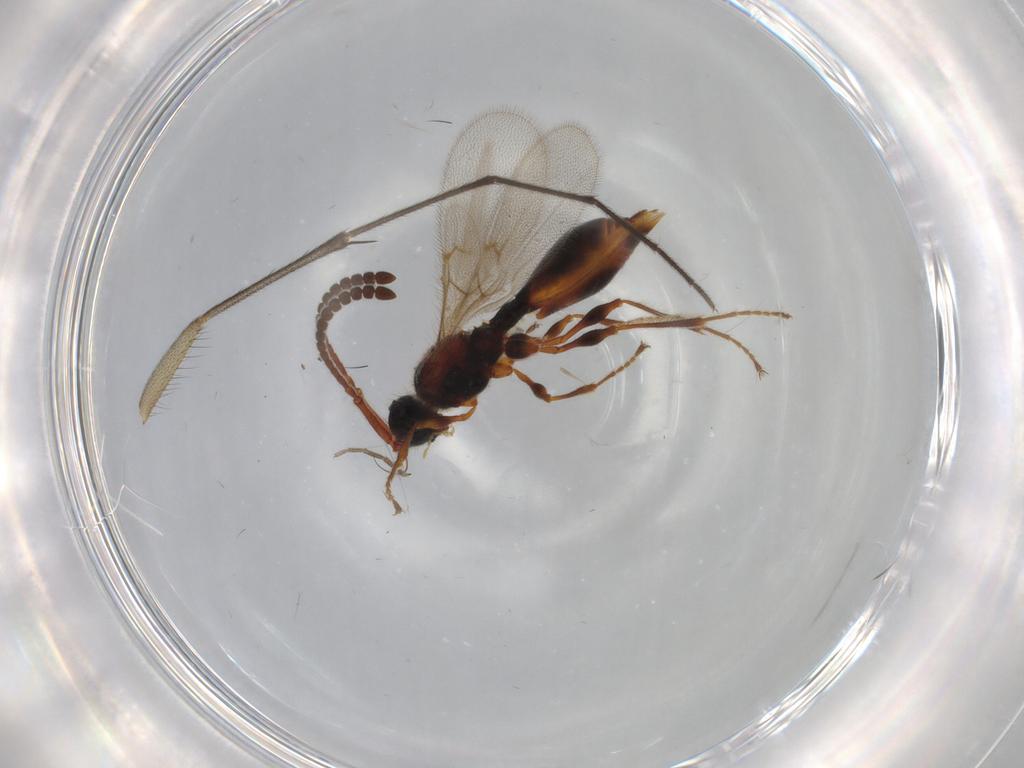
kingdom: Animalia
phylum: Arthropoda
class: Insecta
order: Hymenoptera
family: Diapriidae
